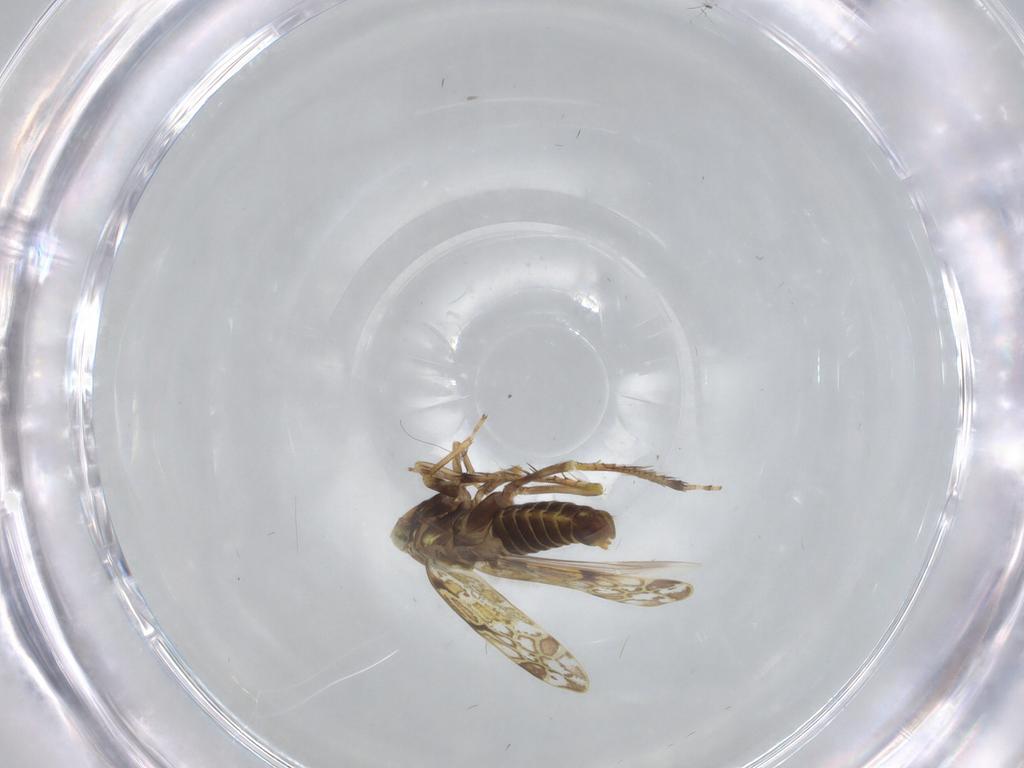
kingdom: Animalia
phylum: Arthropoda
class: Insecta
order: Hemiptera
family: Cicadellidae
